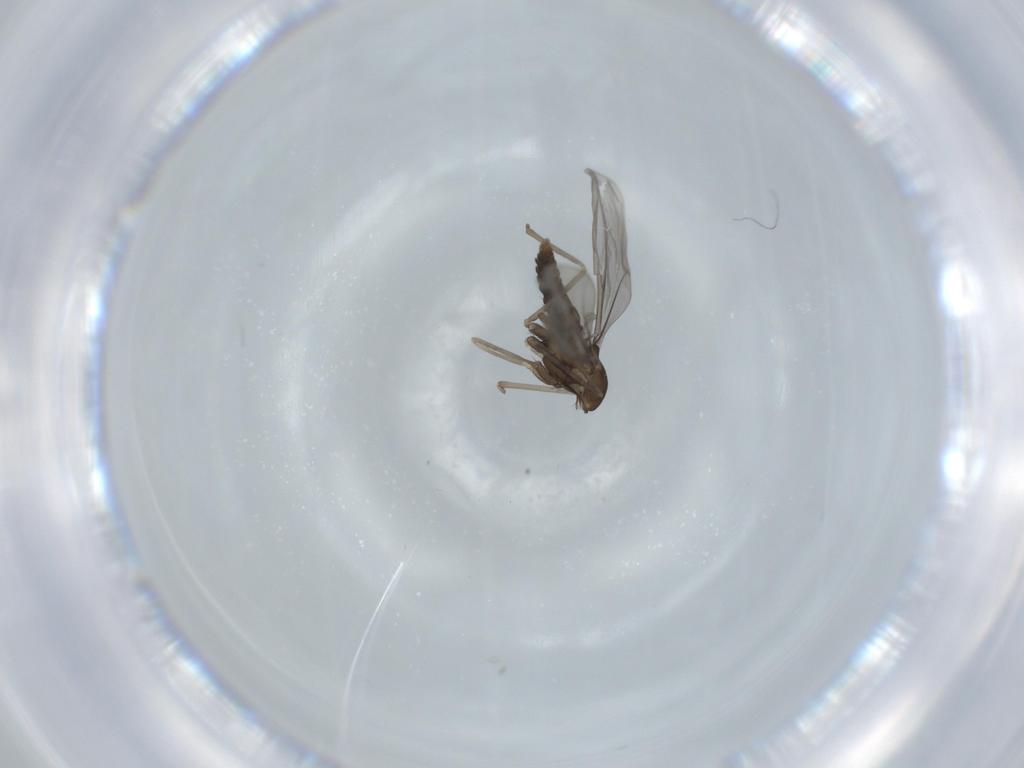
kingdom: Animalia
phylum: Arthropoda
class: Insecta
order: Diptera
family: Cecidomyiidae
